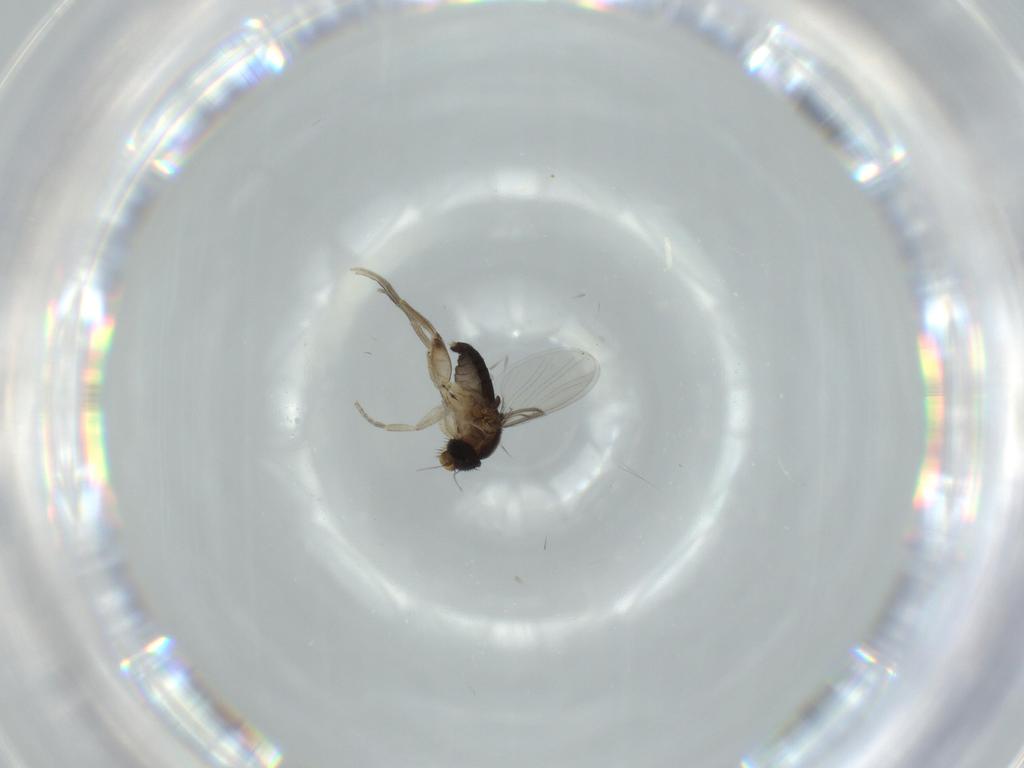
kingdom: Animalia
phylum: Arthropoda
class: Insecta
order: Diptera
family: Phoridae
